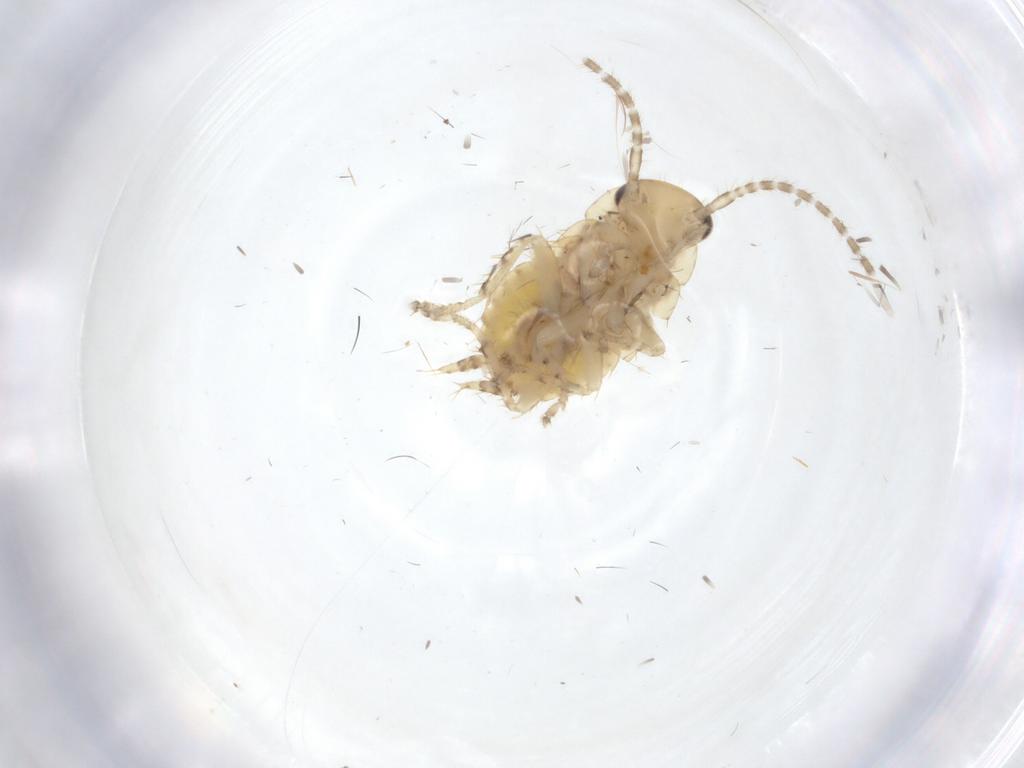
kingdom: Animalia
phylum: Arthropoda
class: Insecta
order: Blattodea
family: Ectobiidae
